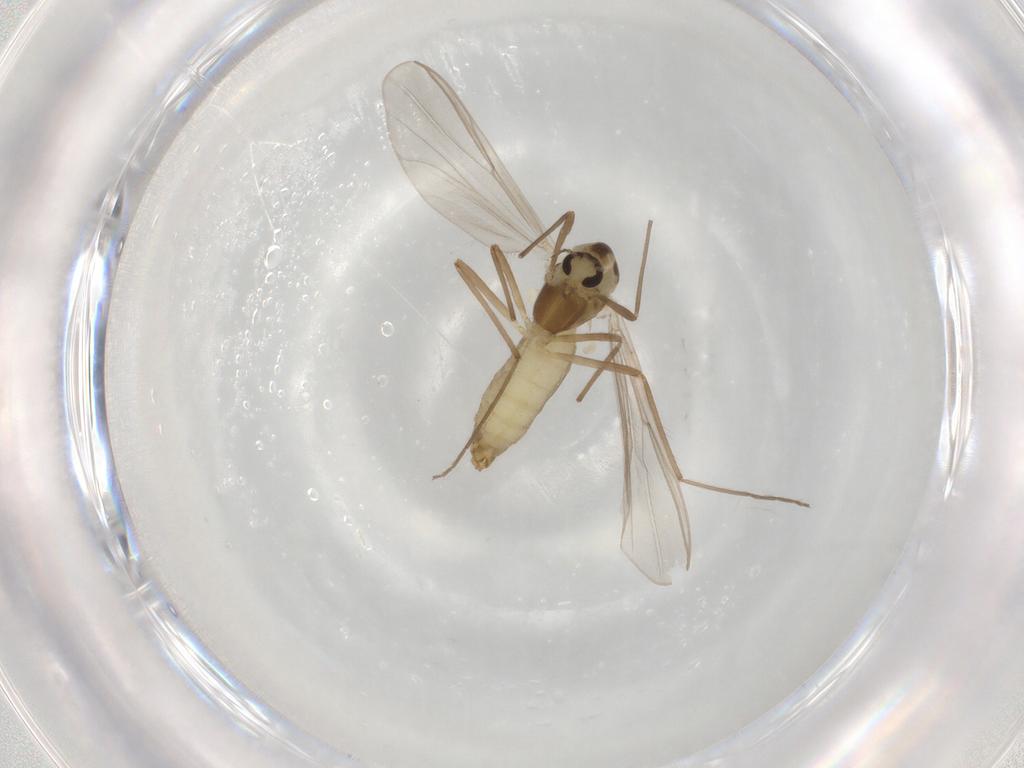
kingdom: Animalia
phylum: Arthropoda
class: Insecta
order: Diptera
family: Chironomidae
